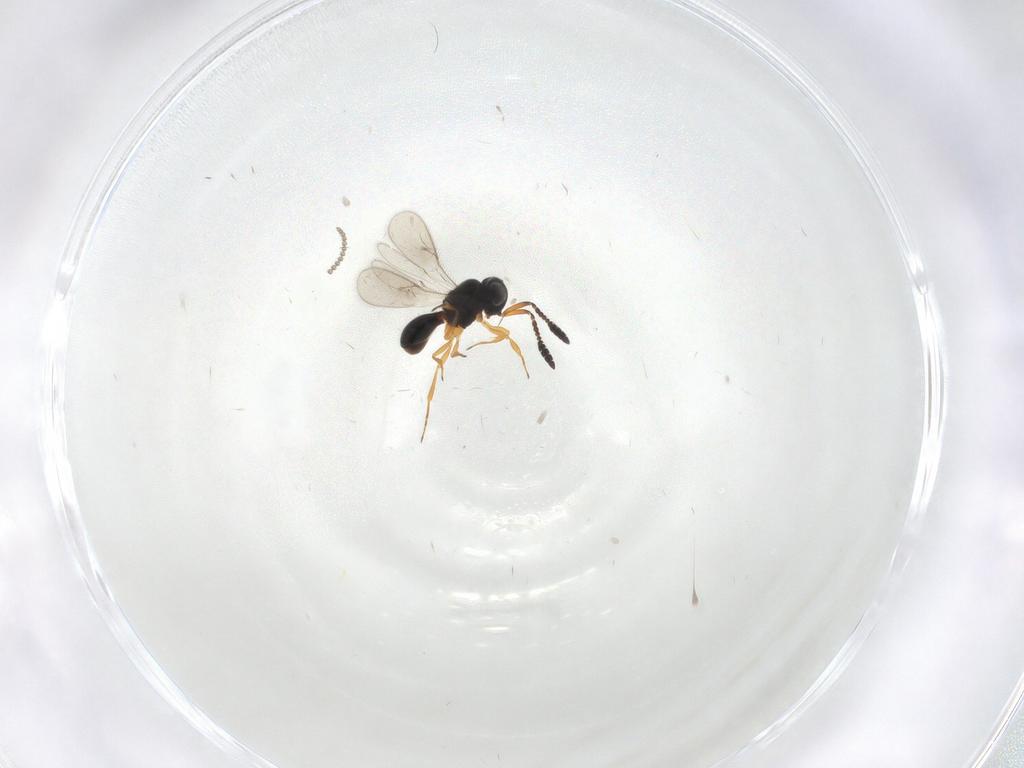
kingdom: Animalia
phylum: Arthropoda
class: Insecta
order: Hymenoptera
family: Scelionidae
